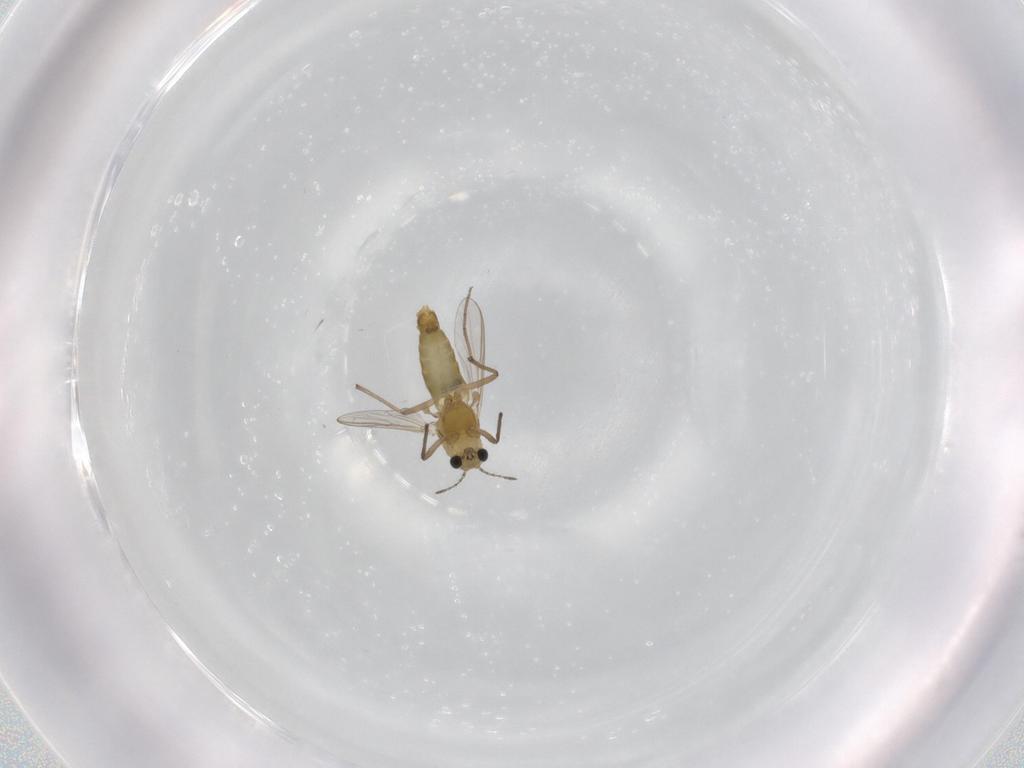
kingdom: Animalia
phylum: Arthropoda
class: Insecta
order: Diptera
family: Chironomidae
